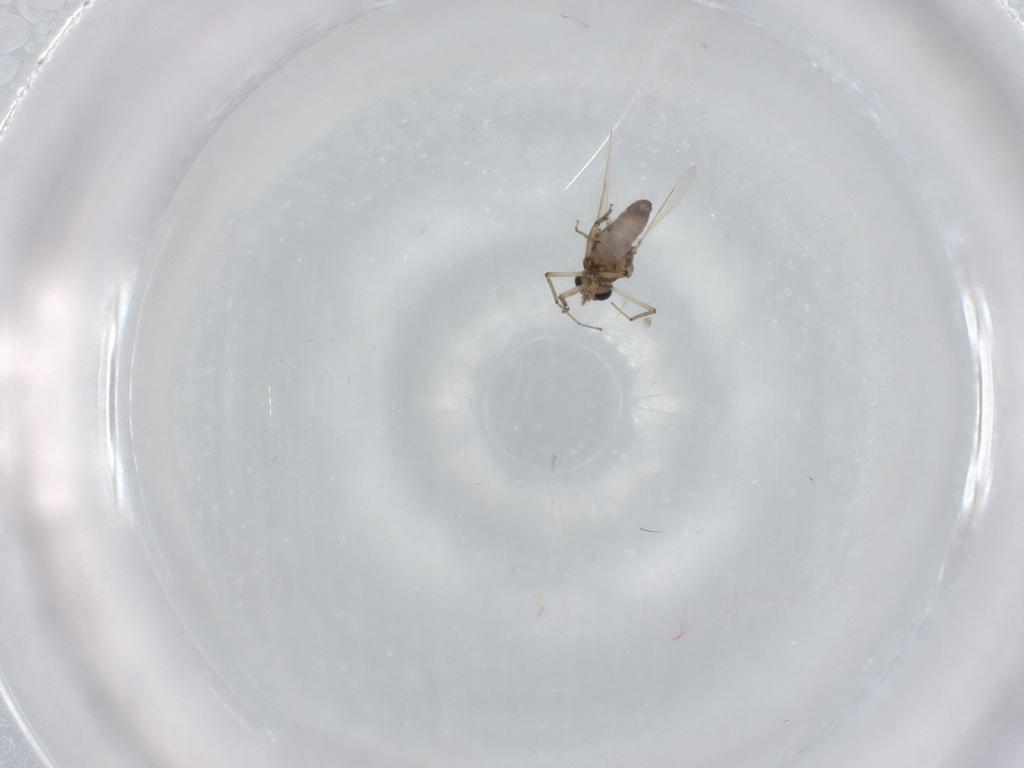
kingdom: Animalia
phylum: Arthropoda
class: Insecta
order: Diptera
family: Ceratopogonidae
